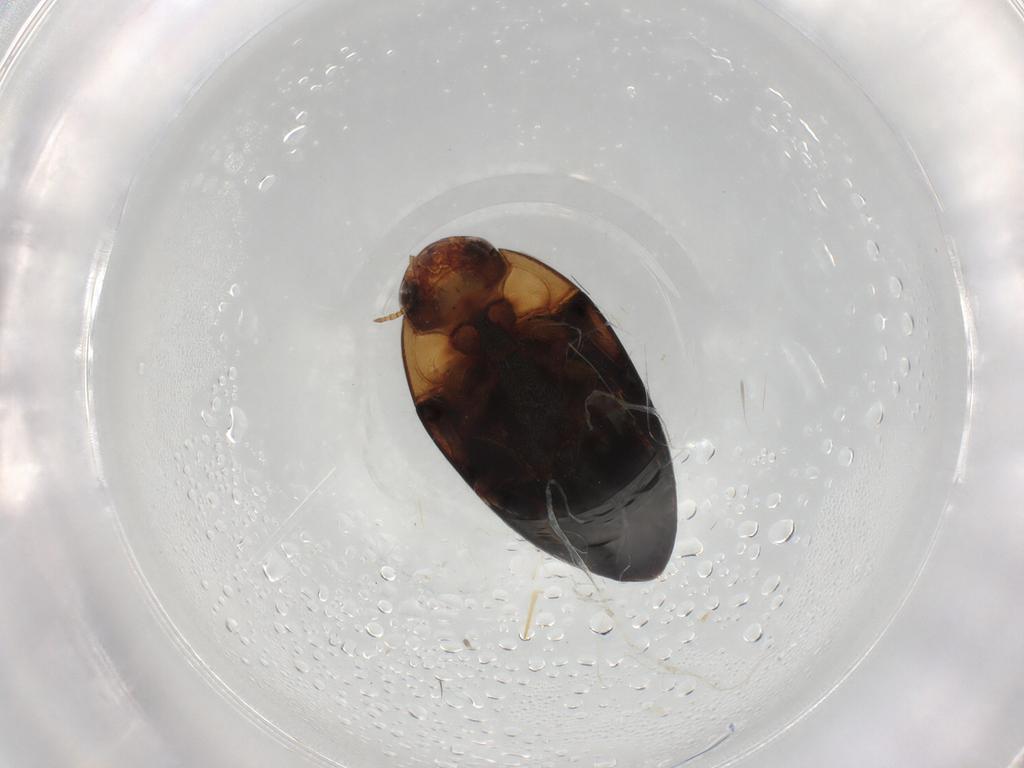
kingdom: Animalia
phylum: Arthropoda
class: Insecta
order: Coleoptera
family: Noteridae
